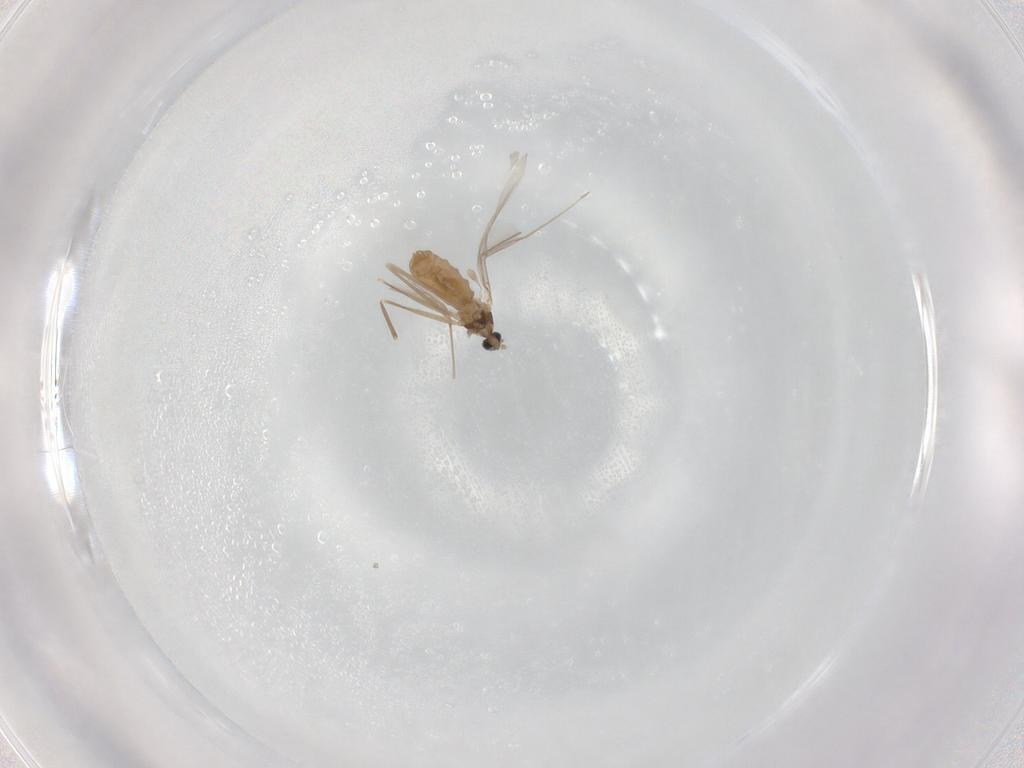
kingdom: Animalia
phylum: Arthropoda
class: Insecta
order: Diptera
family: Cecidomyiidae
